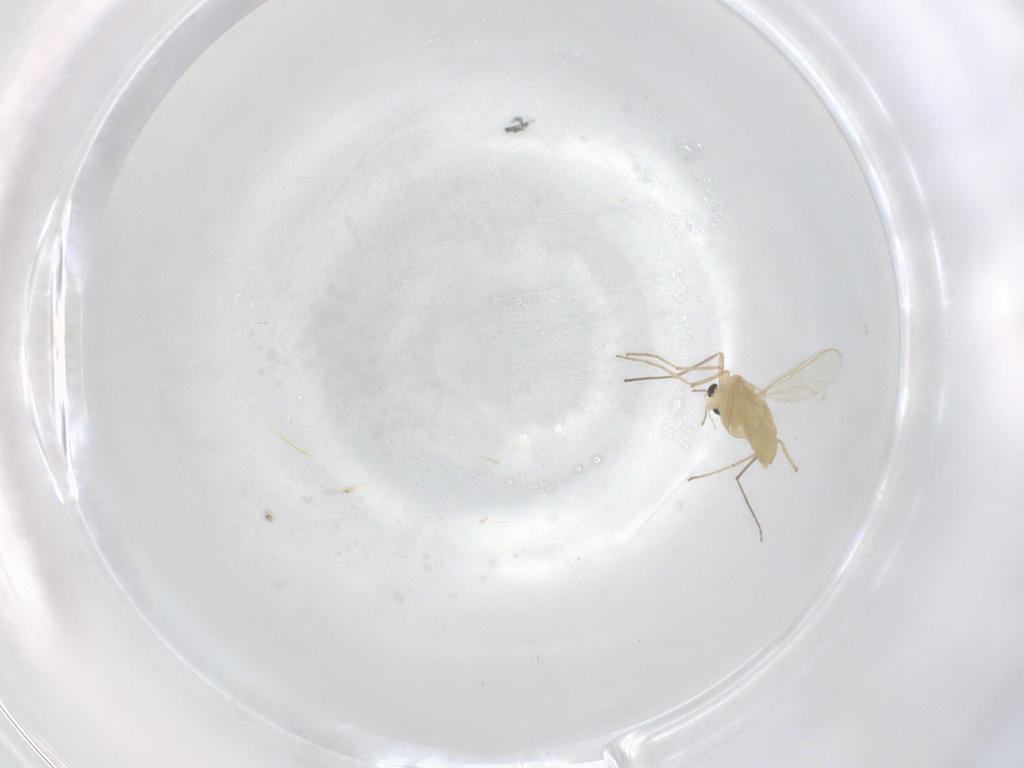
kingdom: Animalia
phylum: Arthropoda
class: Insecta
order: Diptera
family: Chironomidae
